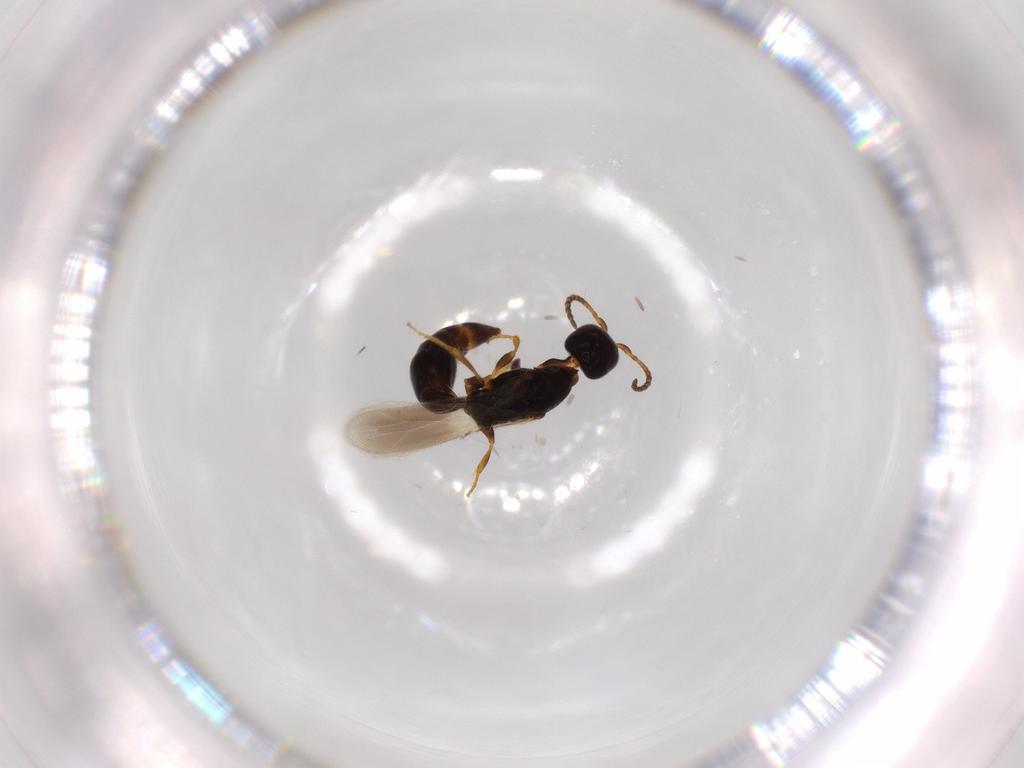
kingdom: Animalia
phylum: Arthropoda
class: Insecta
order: Hymenoptera
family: Bethylidae
